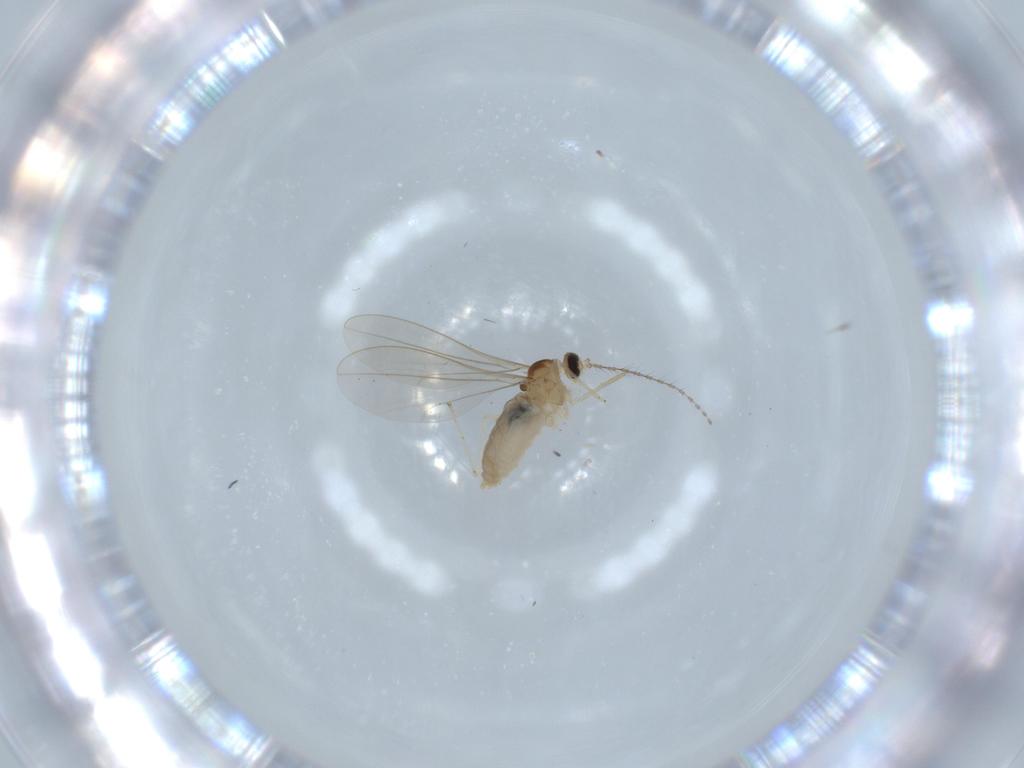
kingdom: Animalia
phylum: Arthropoda
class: Insecta
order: Diptera
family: Cecidomyiidae
